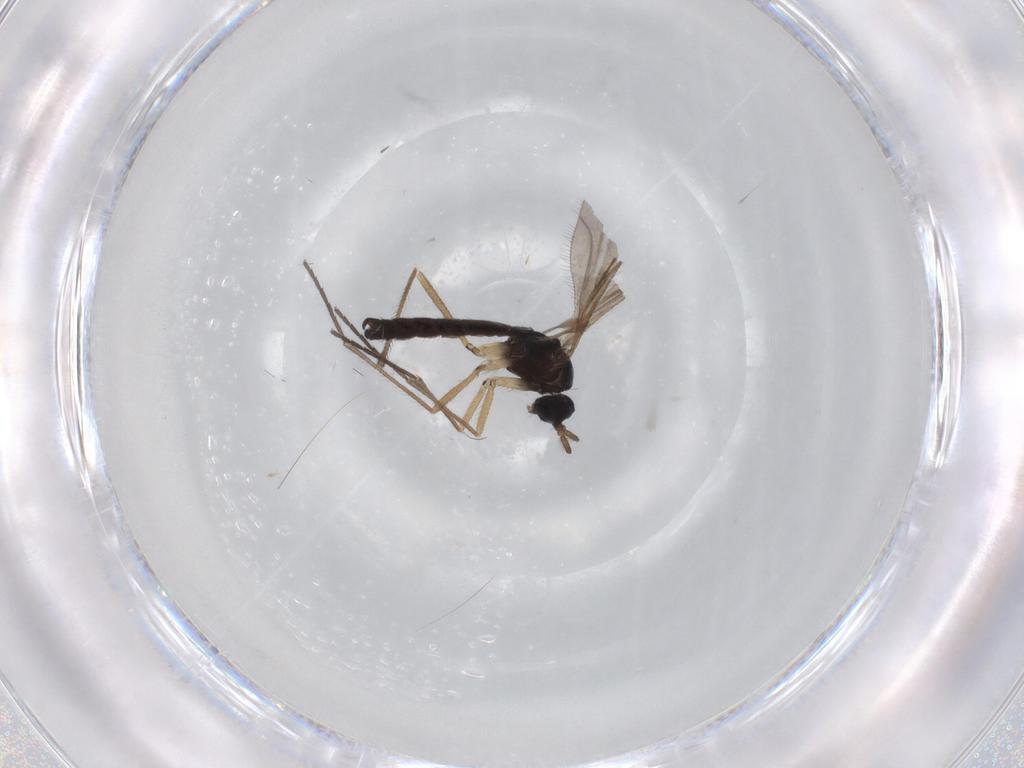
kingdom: Animalia
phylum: Arthropoda
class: Insecta
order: Diptera
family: Sciaridae
